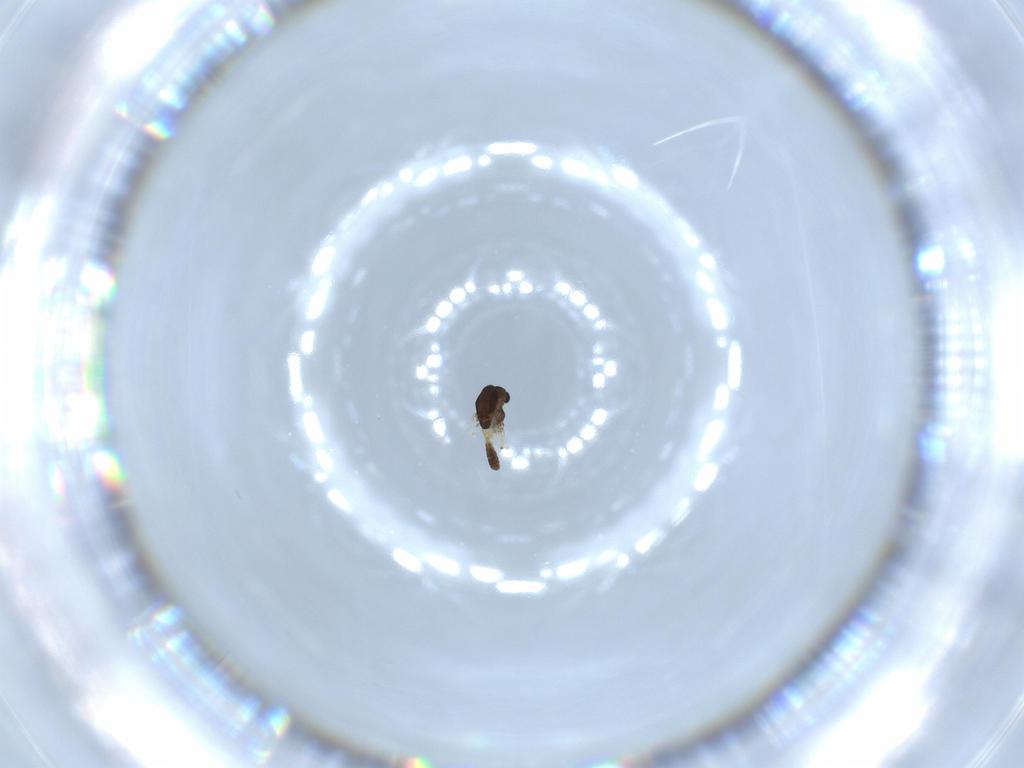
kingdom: Animalia
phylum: Arthropoda
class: Insecta
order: Diptera
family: Chironomidae
